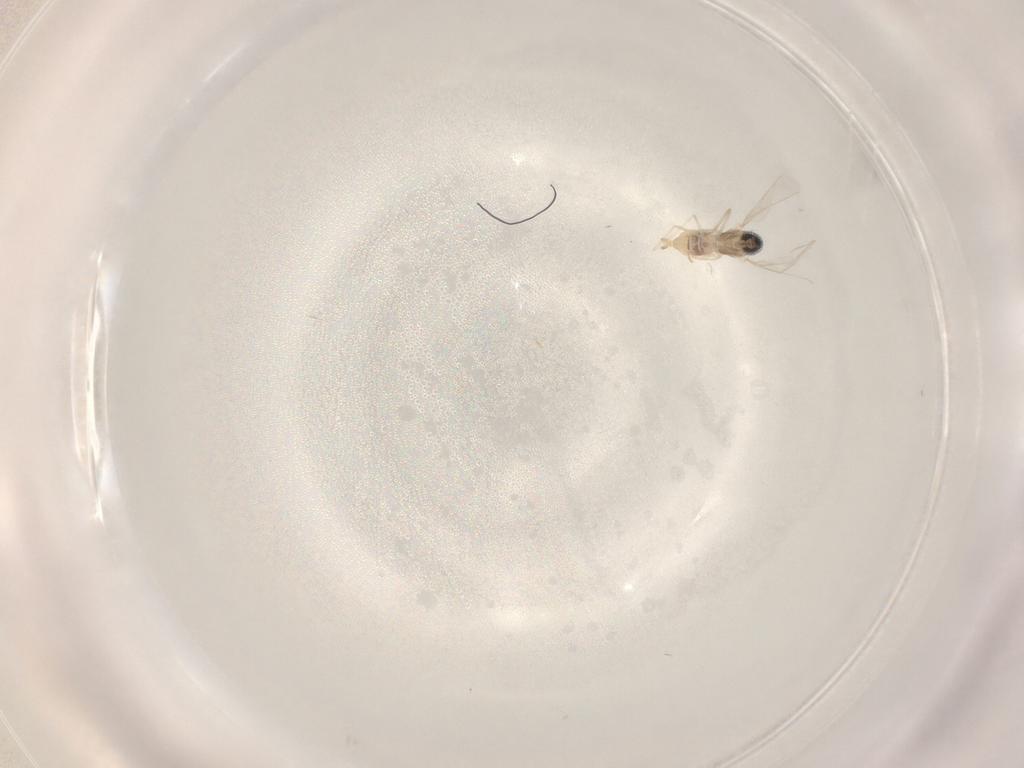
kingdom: Animalia
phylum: Arthropoda
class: Insecta
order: Diptera
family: Cecidomyiidae
